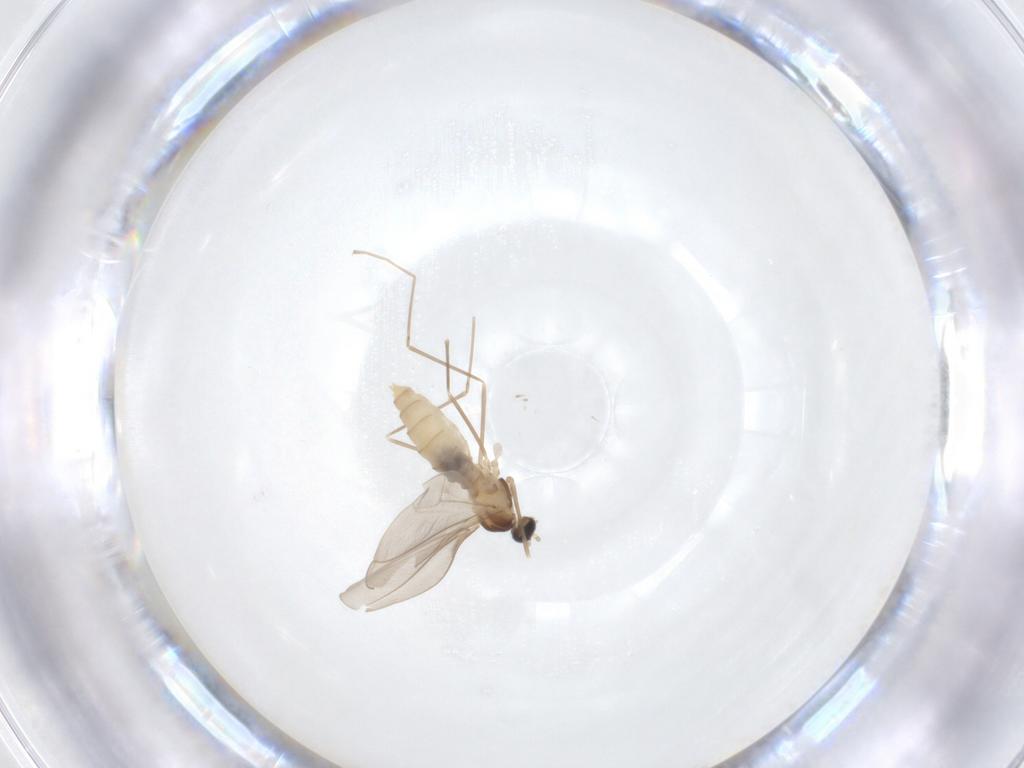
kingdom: Animalia
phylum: Arthropoda
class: Insecta
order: Diptera
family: Cecidomyiidae
